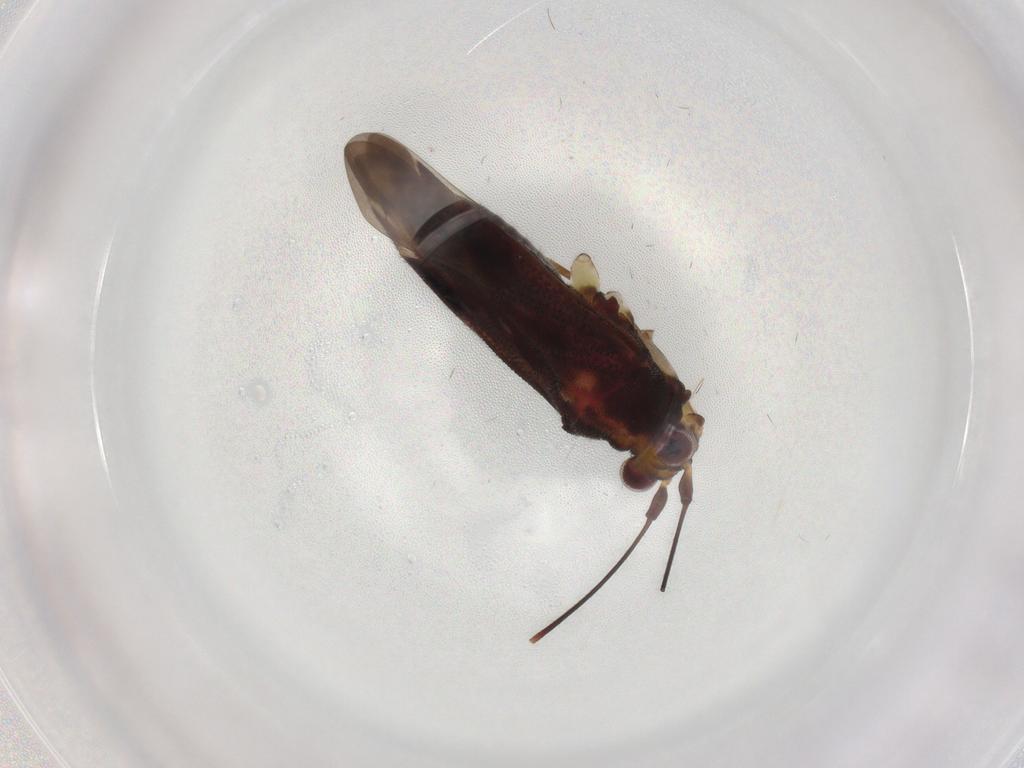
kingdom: Animalia
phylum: Arthropoda
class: Insecta
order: Hemiptera
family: Miridae
